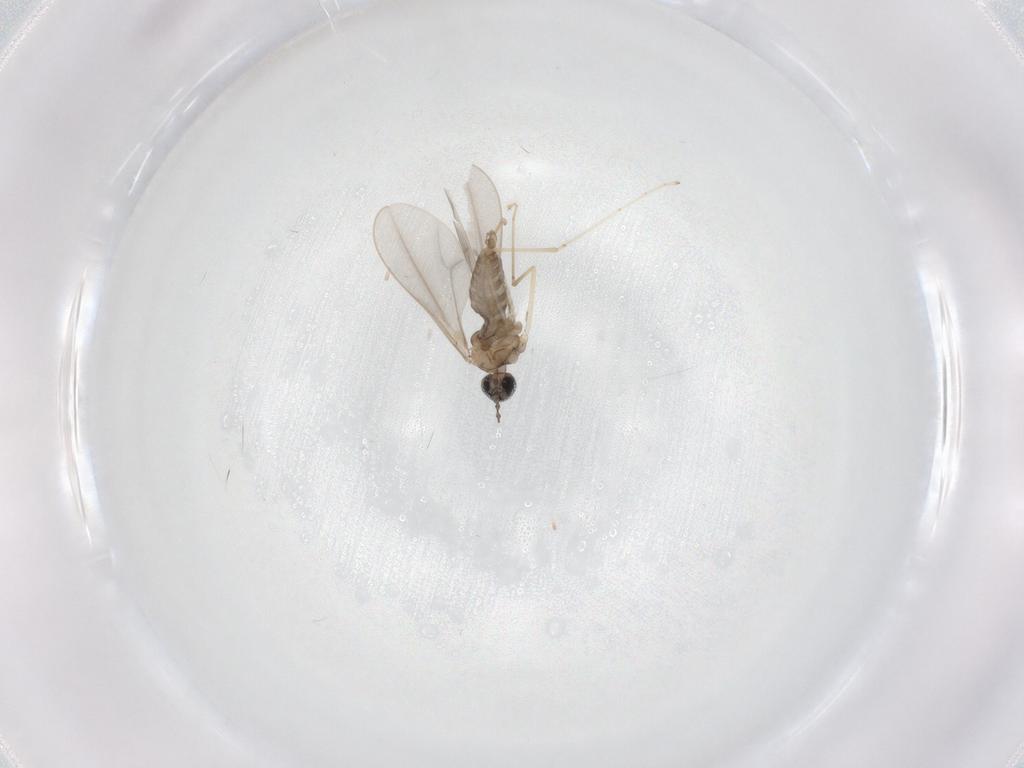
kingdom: Animalia
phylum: Arthropoda
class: Insecta
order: Diptera
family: Cecidomyiidae
